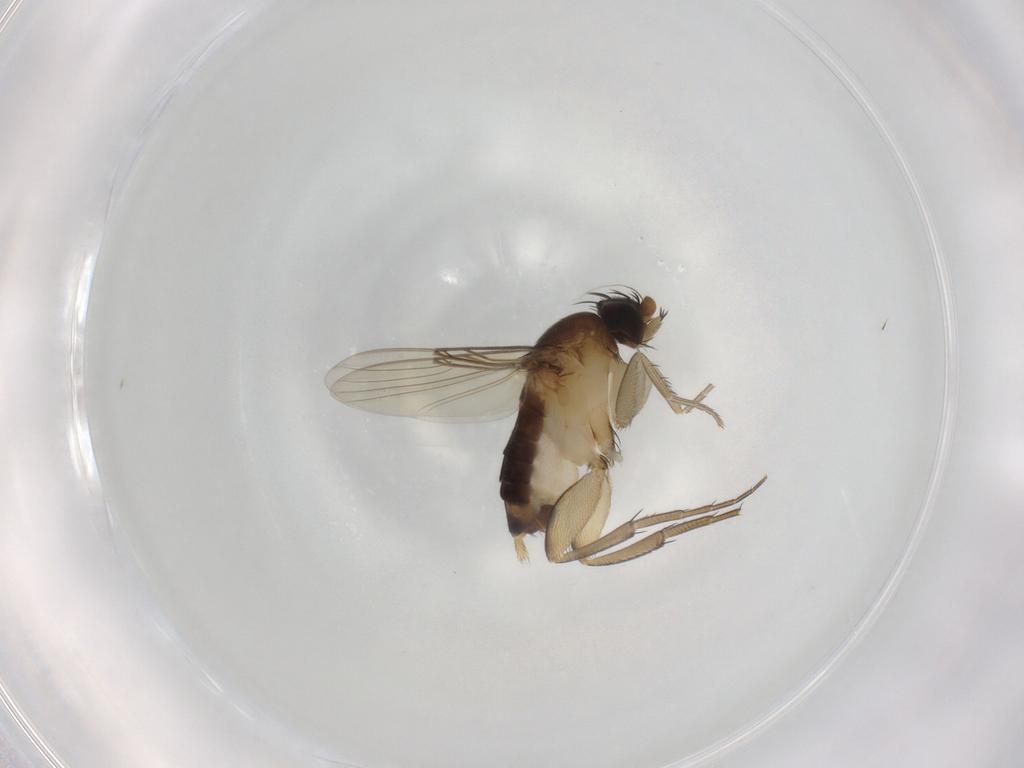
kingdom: Animalia
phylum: Arthropoda
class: Insecta
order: Diptera
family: Phoridae
